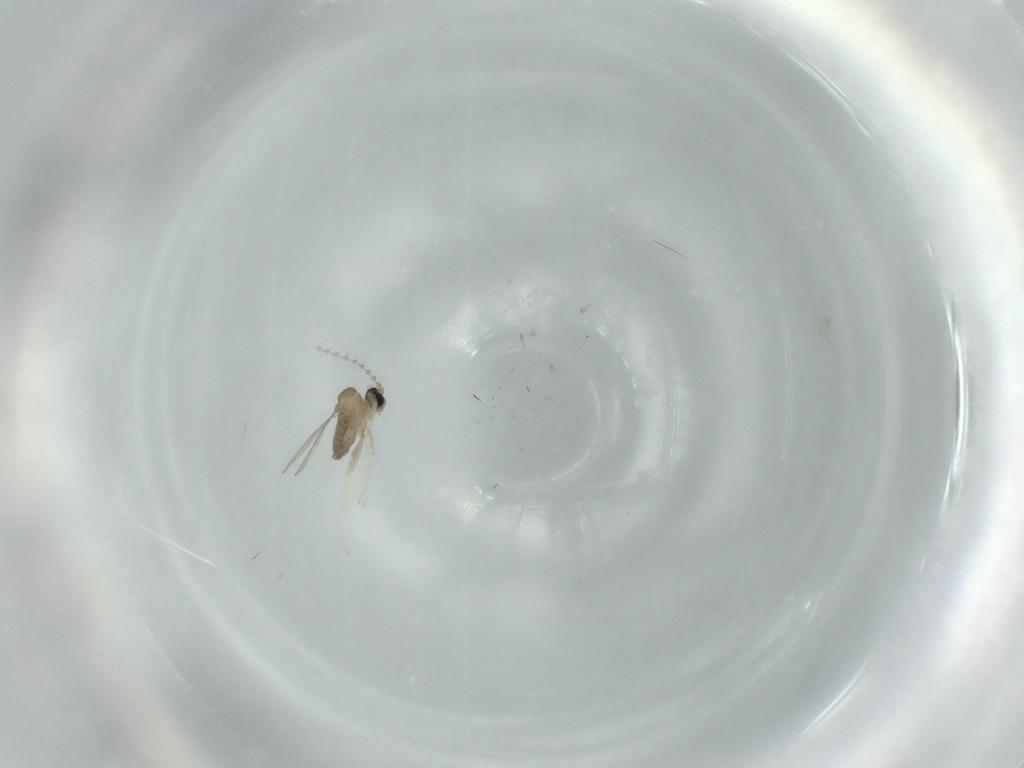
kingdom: Animalia
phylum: Arthropoda
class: Insecta
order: Diptera
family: Cecidomyiidae
